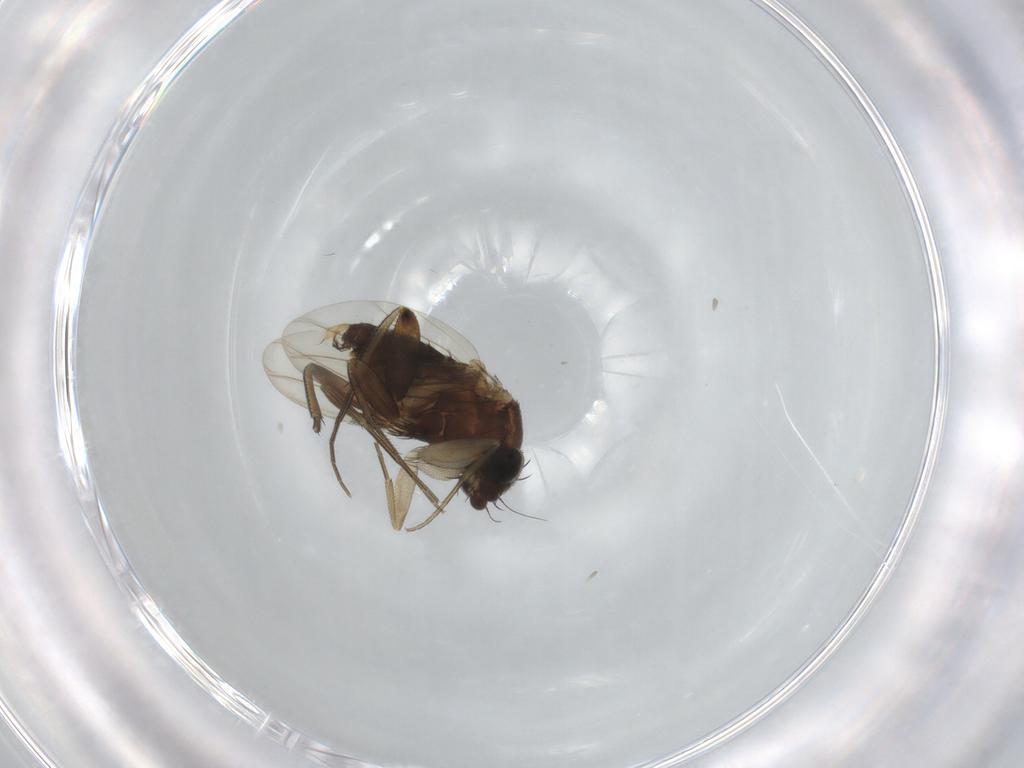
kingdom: Animalia
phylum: Arthropoda
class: Insecta
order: Diptera
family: Phoridae
